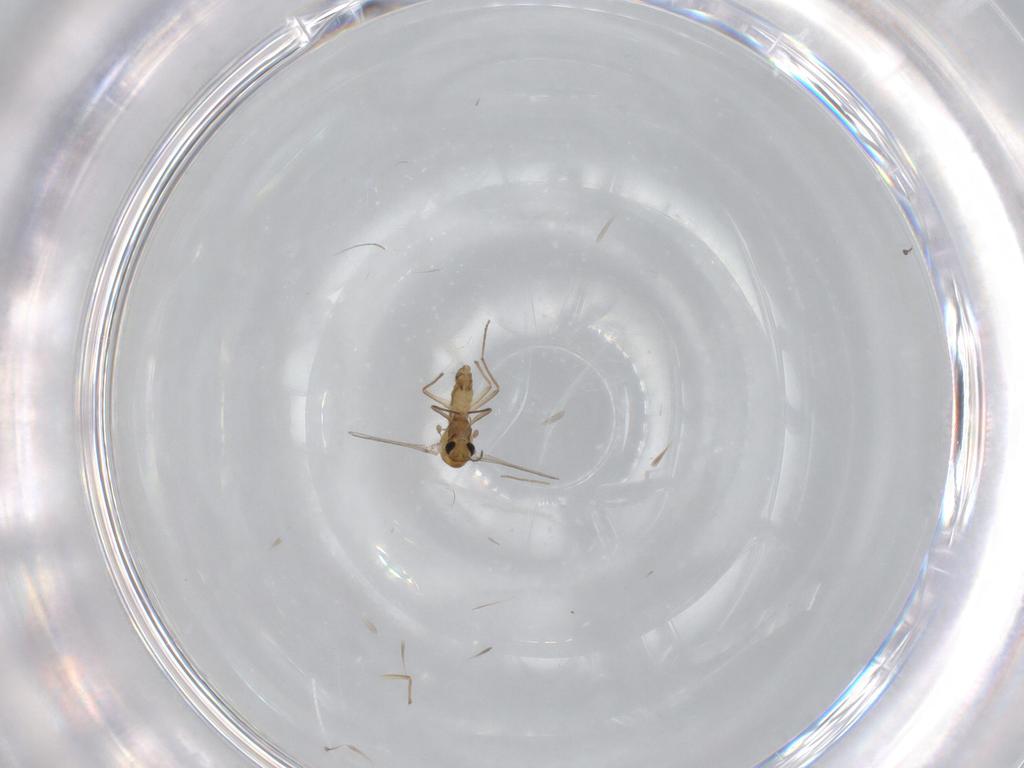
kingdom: Animalia
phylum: Arthropoda
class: Insecta
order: Diptera
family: Chironomidae
